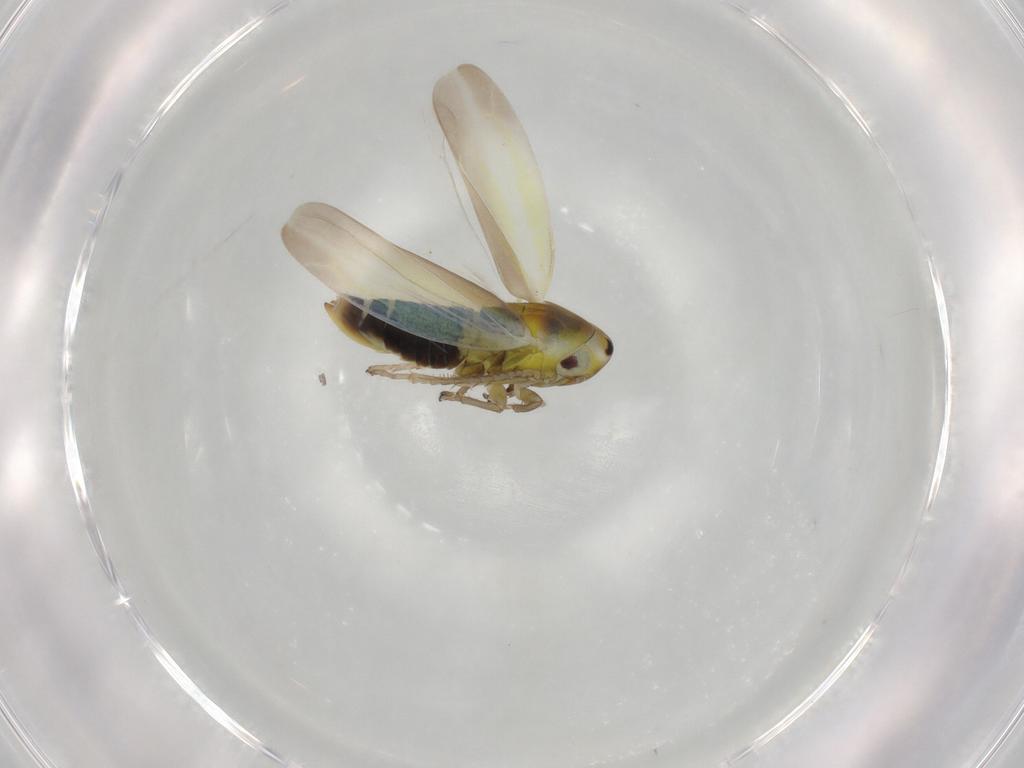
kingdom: Animalia
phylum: Arthropoda
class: Insecta
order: Hemiptera
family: Cicadellidae
